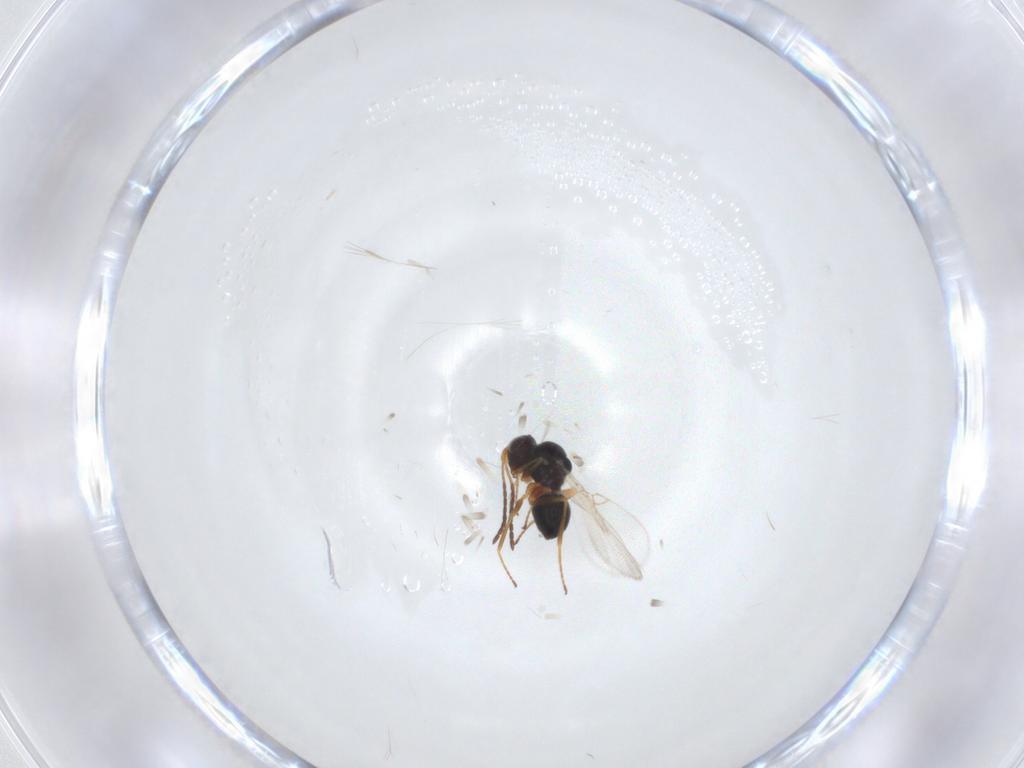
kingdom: Animalia
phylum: Arthropoda
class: Insecta
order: Hymenoptera
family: Figitidae
